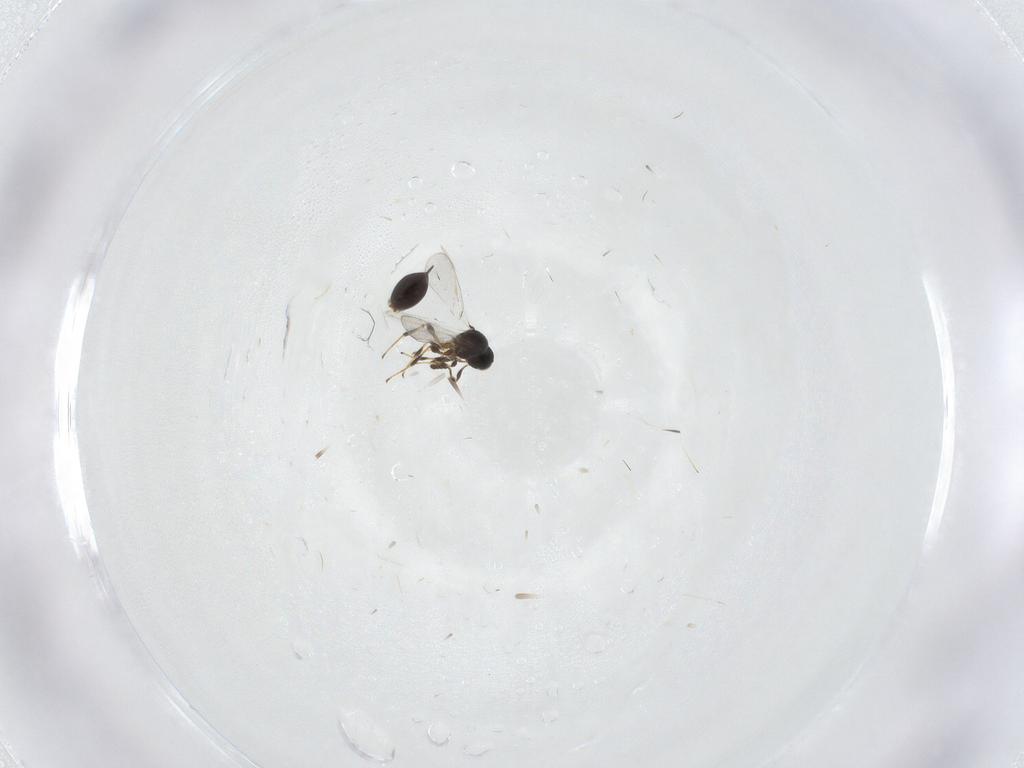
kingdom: Animalia
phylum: Arthropoda
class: Insecta
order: Hymenoptera
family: Platygastridae
